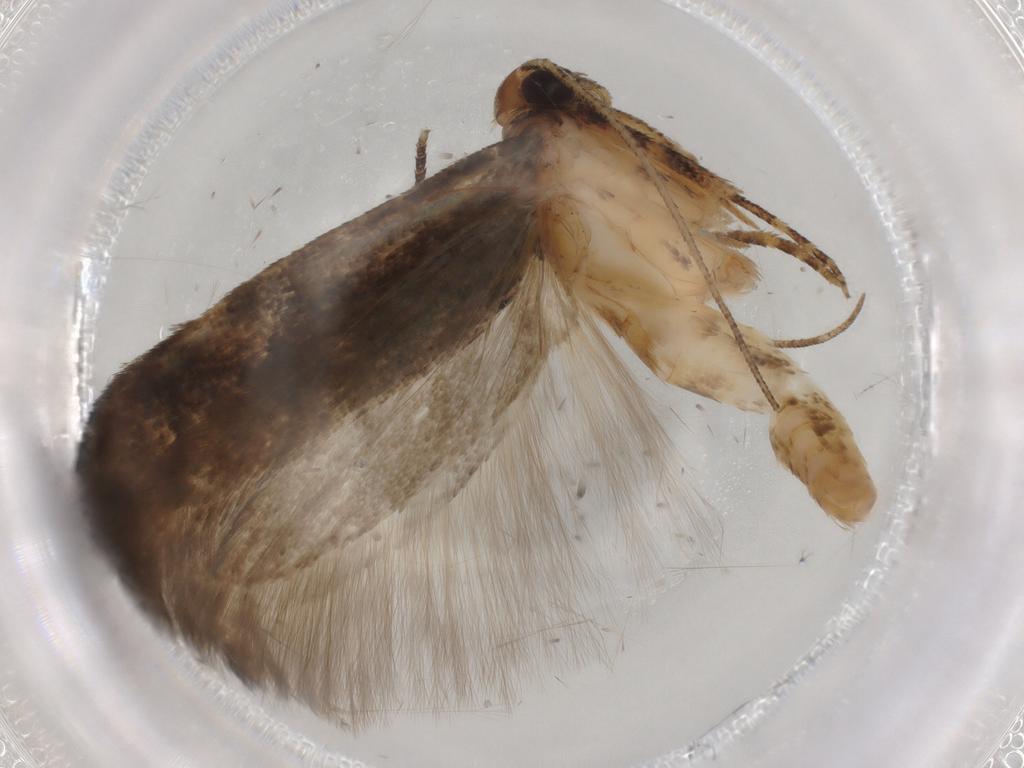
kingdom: Animalia
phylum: Arthropoda
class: Insecta
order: Lepidoptera
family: Gelechiidae
